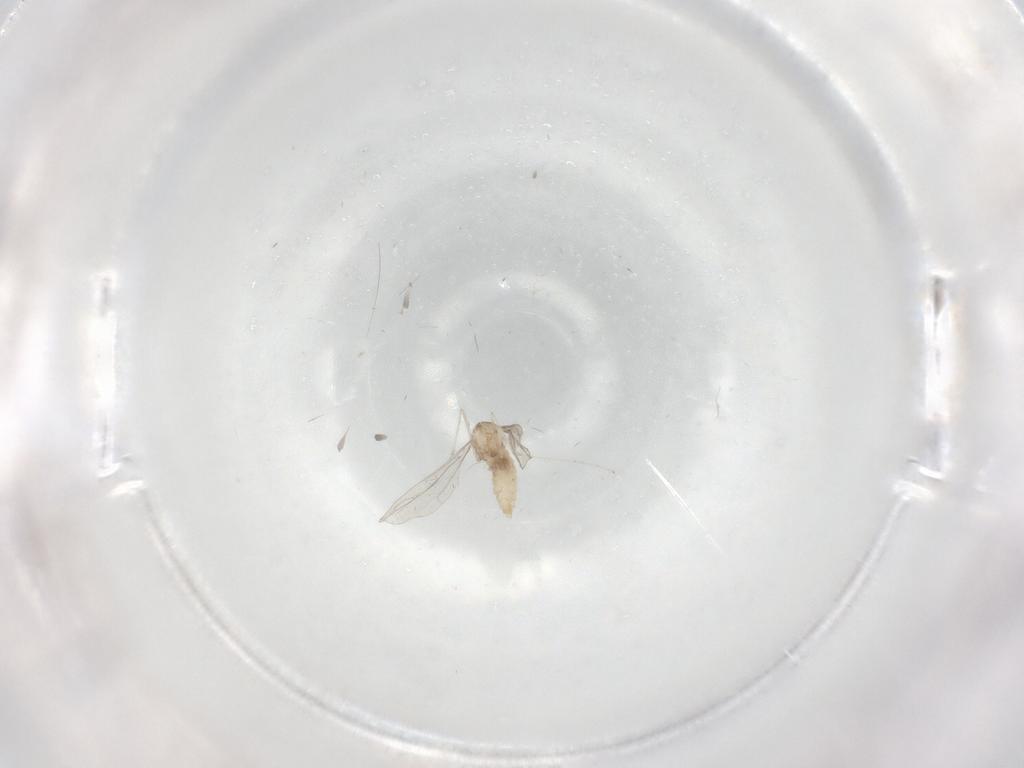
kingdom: Animalia
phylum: Arthropoda
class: Insecta
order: Diptera
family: Cecidomyiidae
